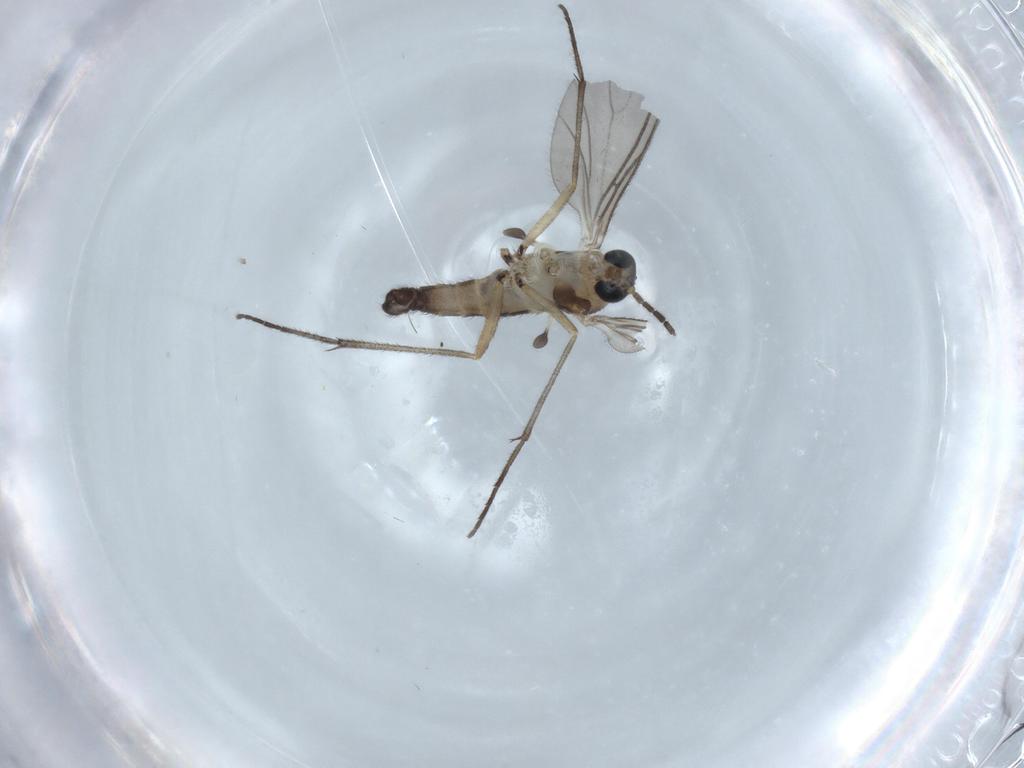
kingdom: Animalia
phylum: Arthropoda
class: Insecta
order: Diptera
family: Sciaridae
